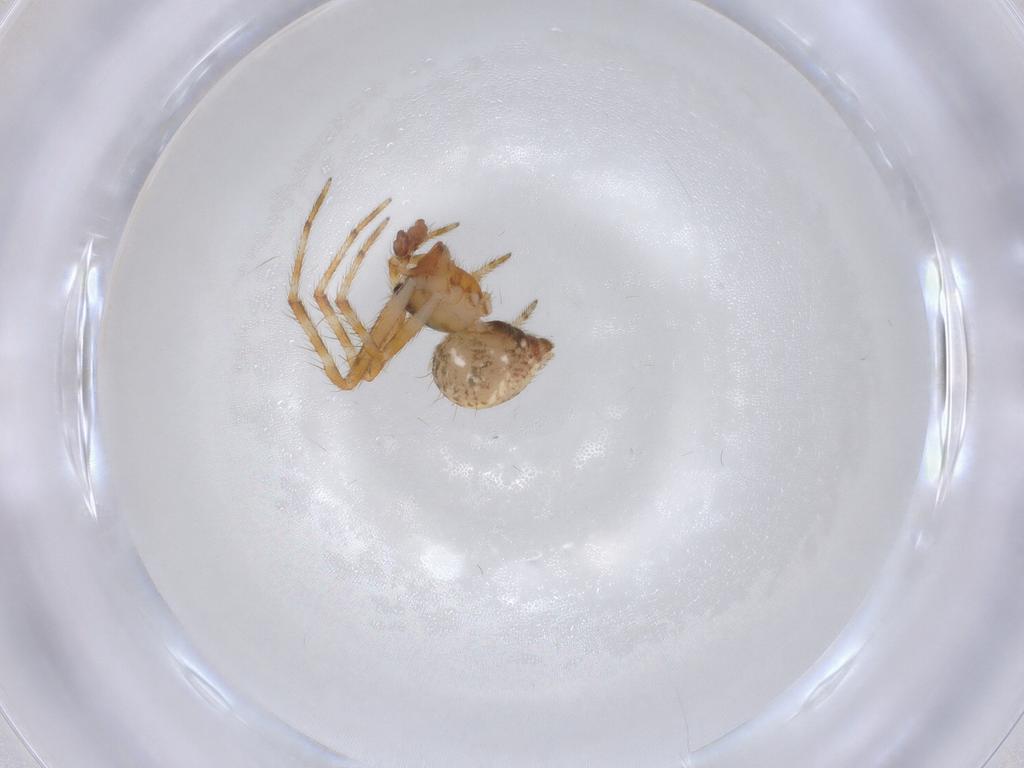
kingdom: Animalia
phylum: Arthropoda
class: Arachnida
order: Araneae
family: Theridiidae
